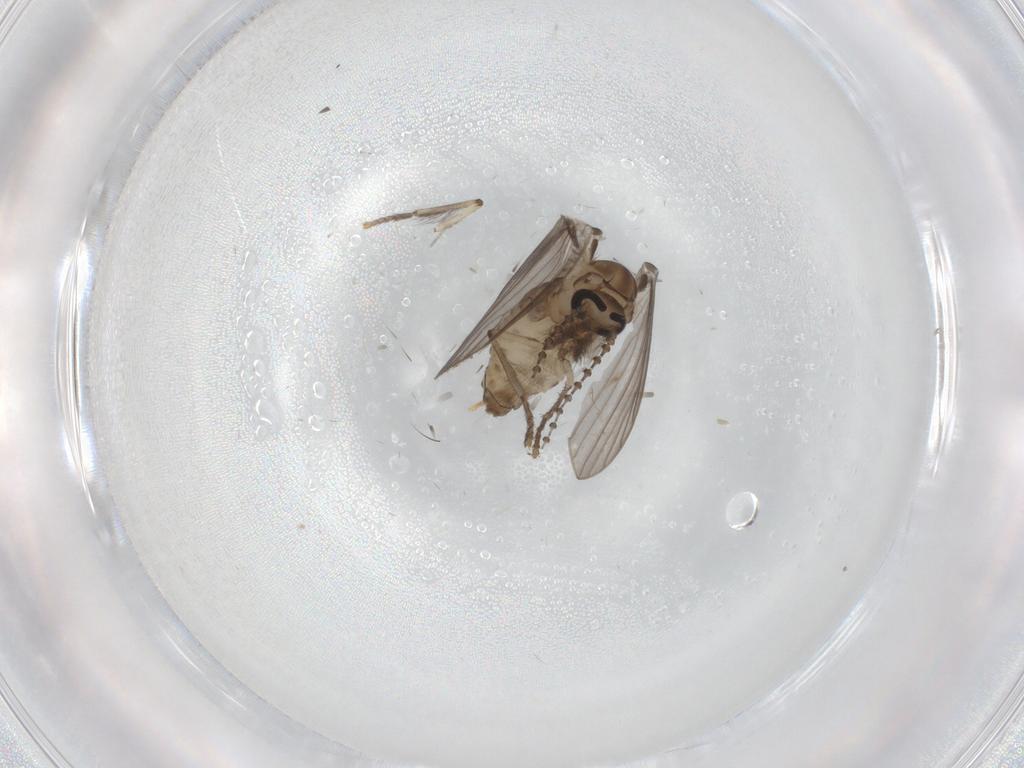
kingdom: Animalia
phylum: Arthropoda
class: Insecta
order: Diptera
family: Psychodidae
